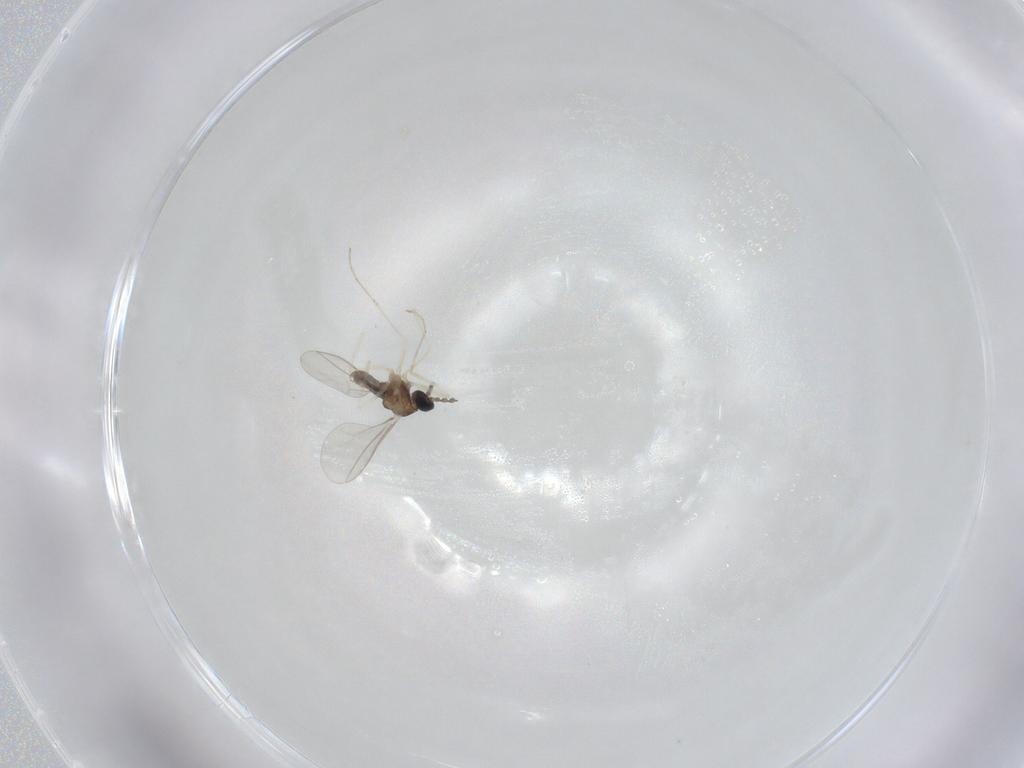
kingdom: Animalia
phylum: Arthropoda
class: Insecta
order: Diptera
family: Cecidomyiidae
